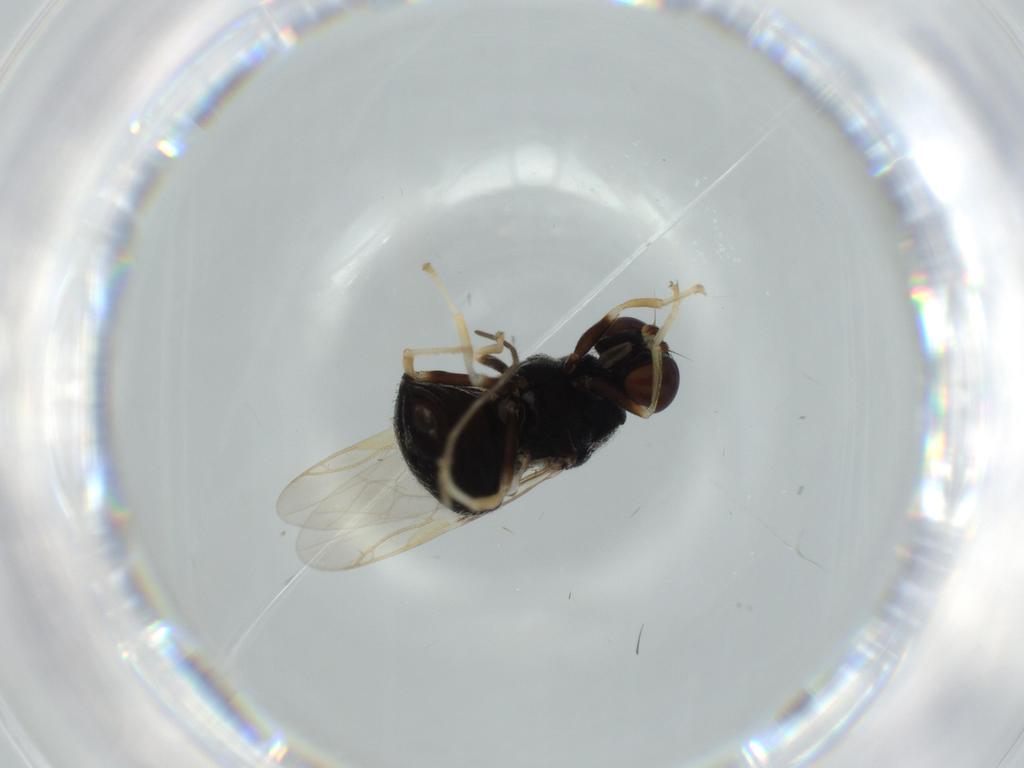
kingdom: Animalia
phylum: Arthropoda
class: Insecta
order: Diptera
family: Stratiomyidae
